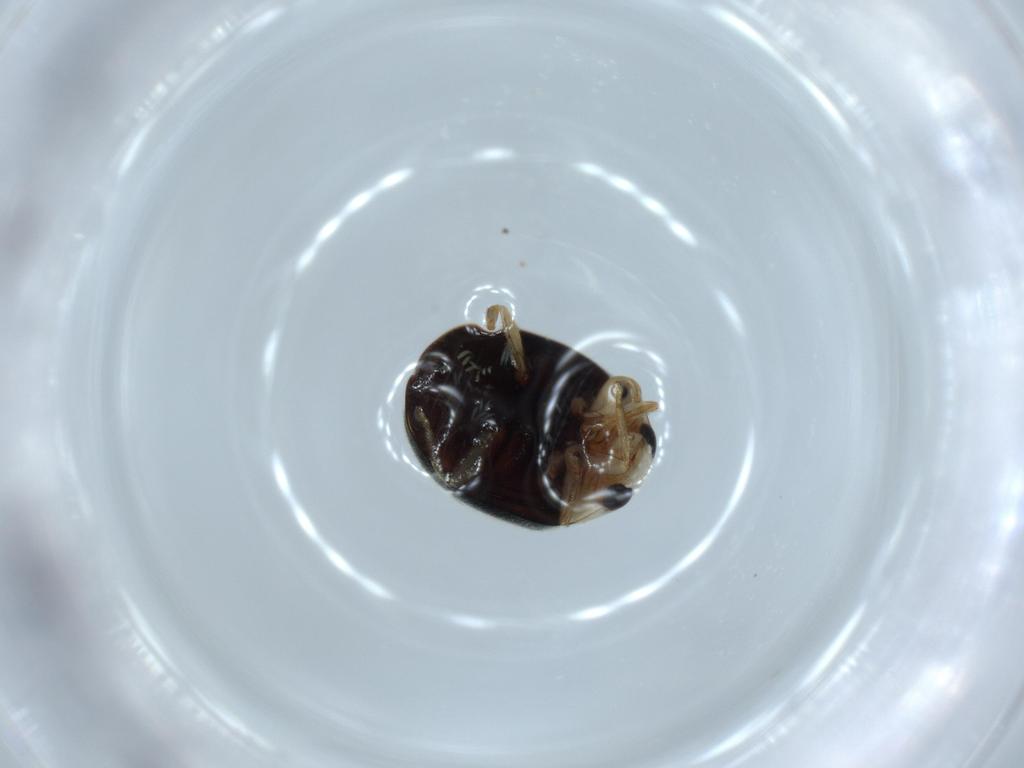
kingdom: Animalia
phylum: Arthropoda
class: Insecta
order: Coleoptera
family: Coccinellidae
